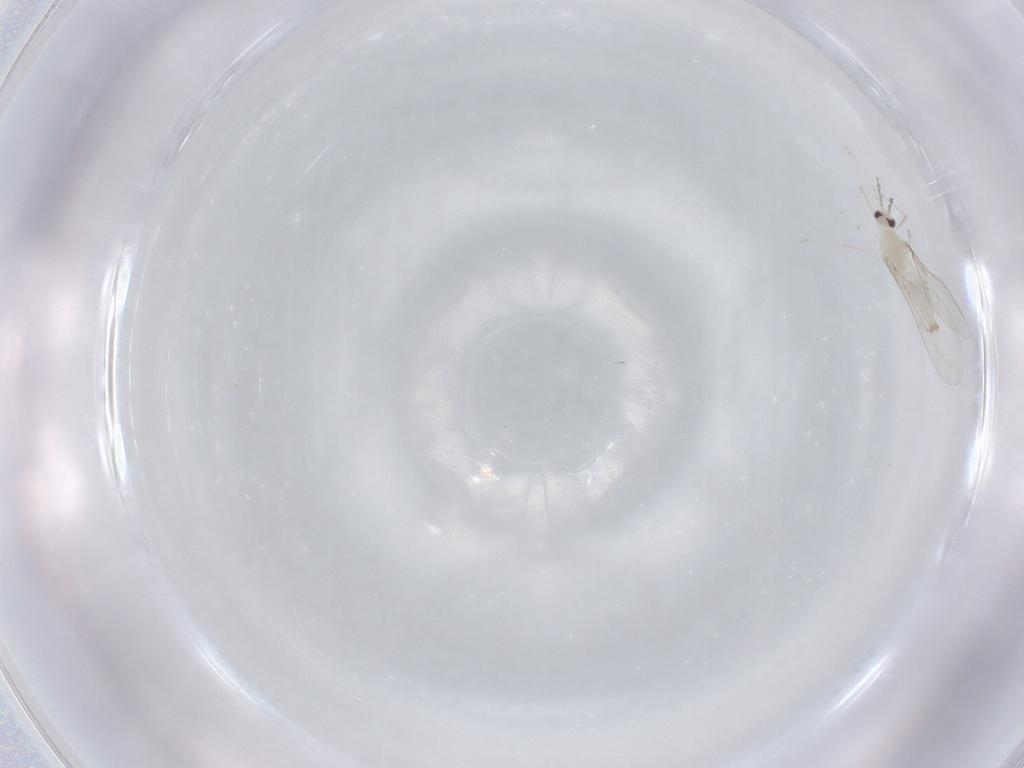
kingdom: Animalia
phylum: Arthropoda
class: Insecta
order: Diptera
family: Cecidomyiidae
